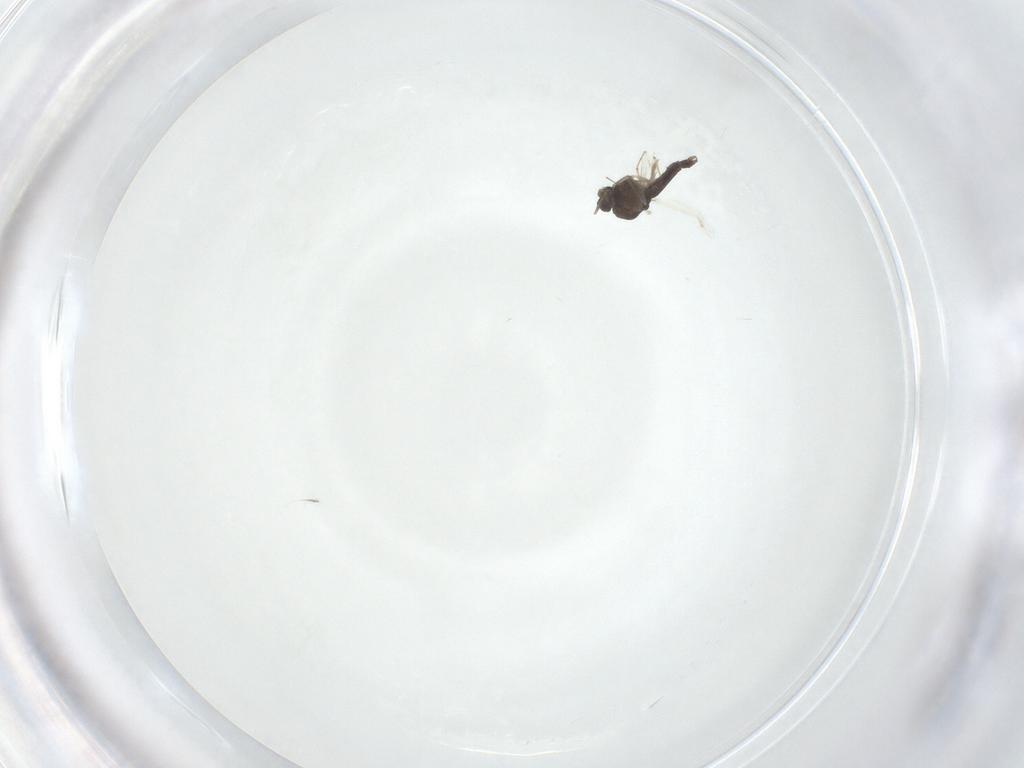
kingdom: Animalia
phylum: Arthropoda
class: Insecta
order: Diptera
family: Chironomidae
